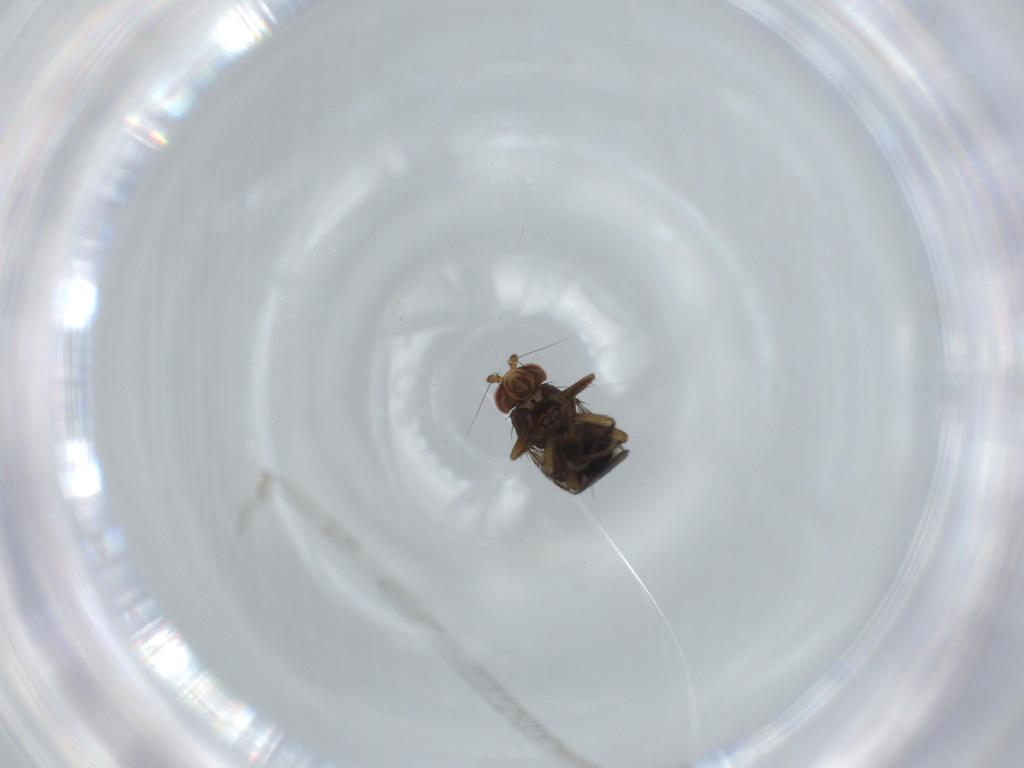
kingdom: Animalia
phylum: Arthropoda
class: Insecta
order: Diptera
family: Sphaeroceridae
